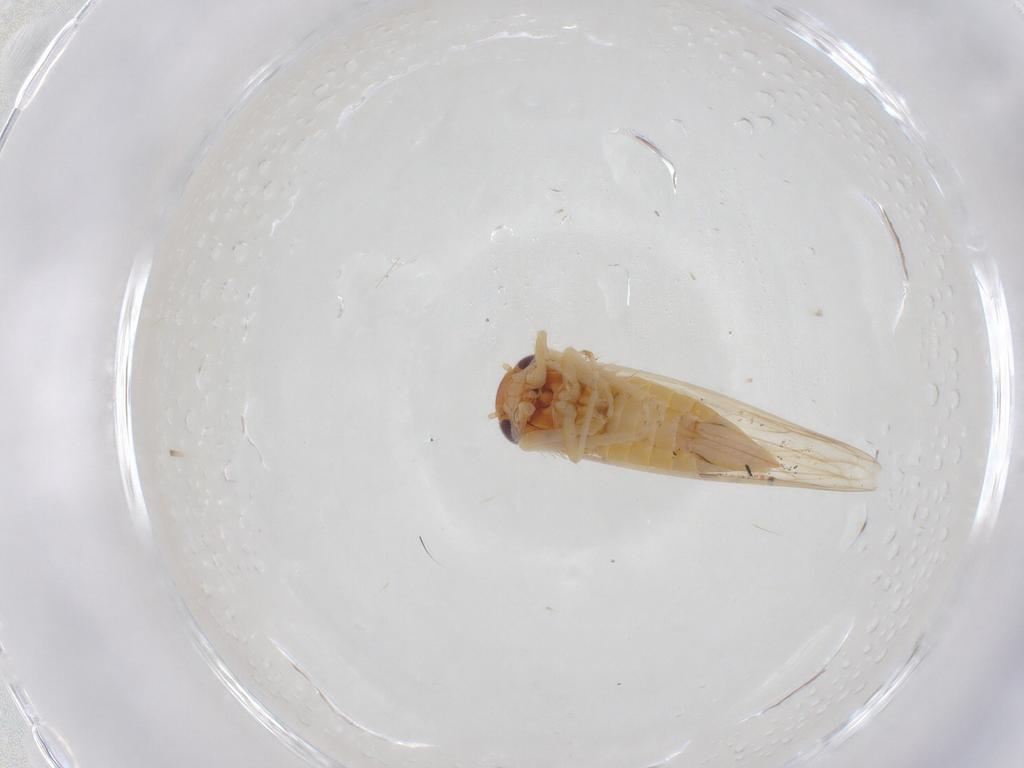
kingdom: Animalia
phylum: Arthropoda
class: Insecta
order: Hemiptera
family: Cicadellidae
